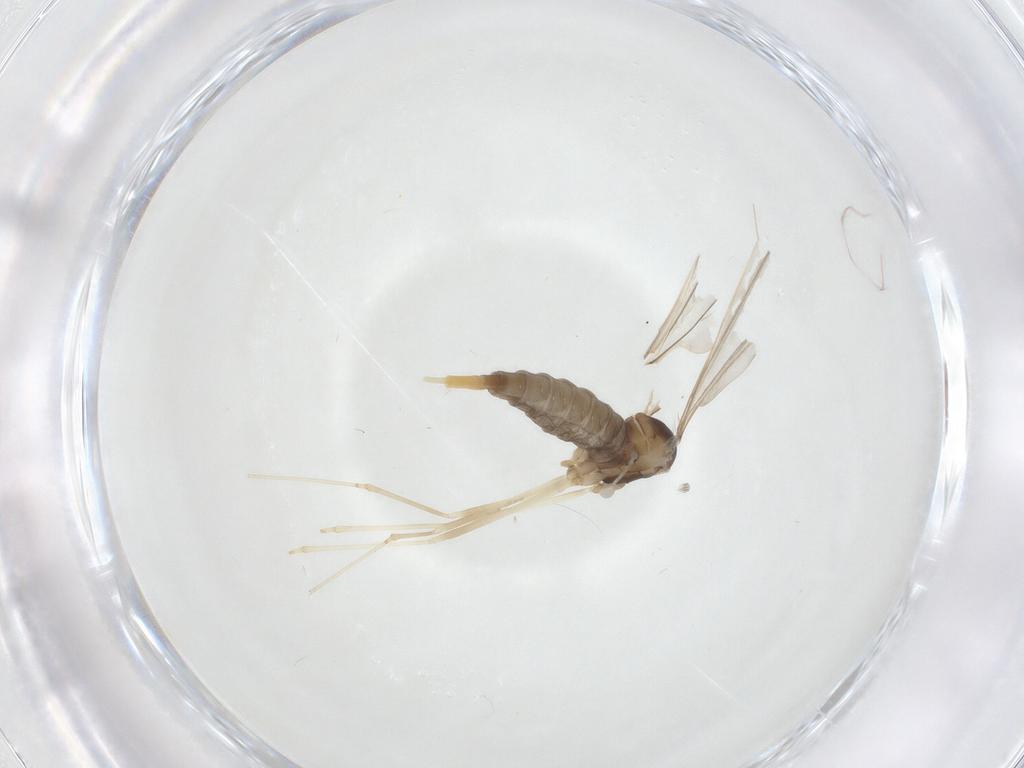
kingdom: Animalia
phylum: Arthropoda
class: Insecta
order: Diptera
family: Cecidomyiidae
